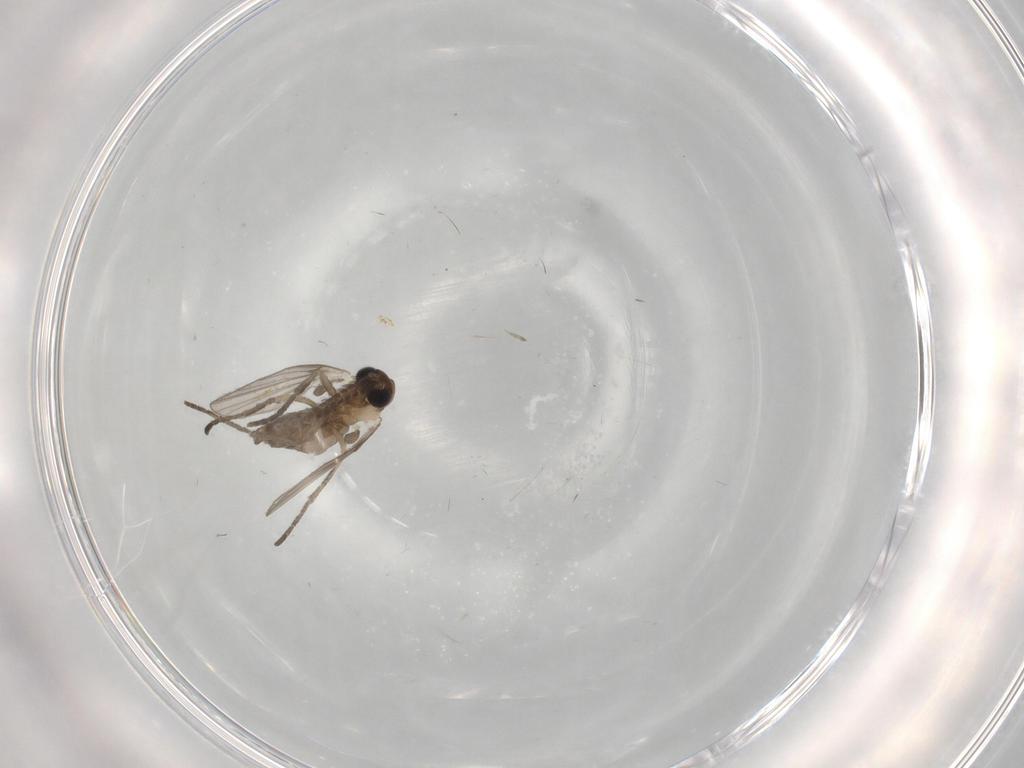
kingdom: Animalia
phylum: Arthropoda
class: Insecta
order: Diptera
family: Psychodidae
